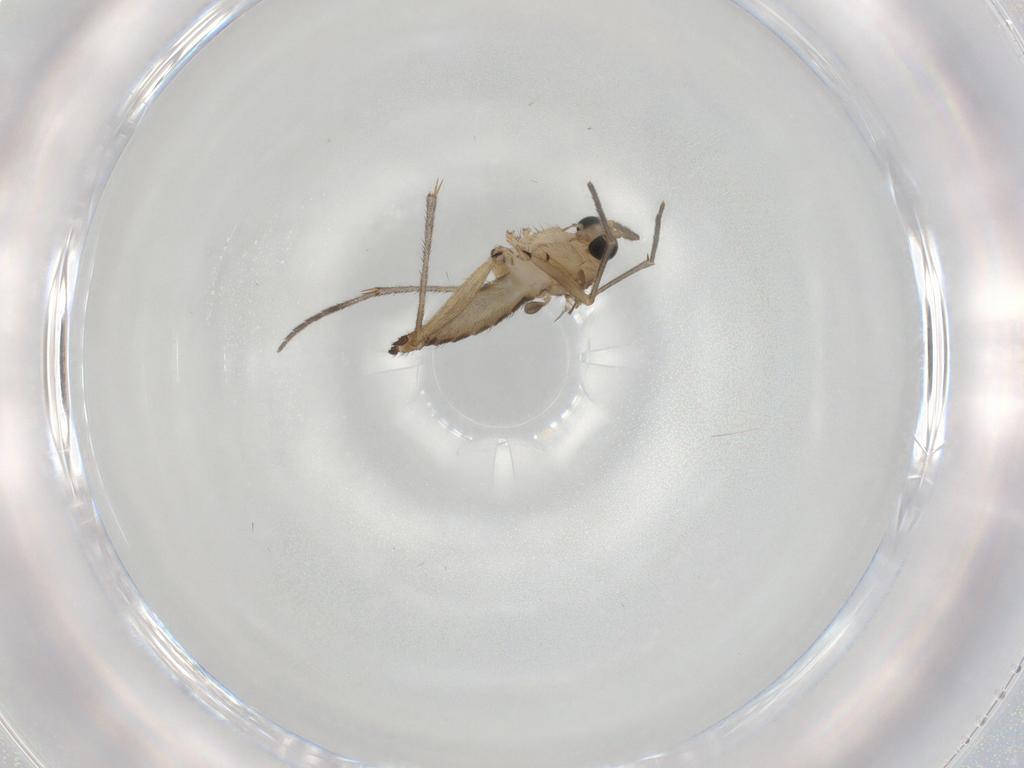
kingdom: Animalia
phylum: Arthropoda
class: Insecta
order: Diptera
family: Sciaridae
